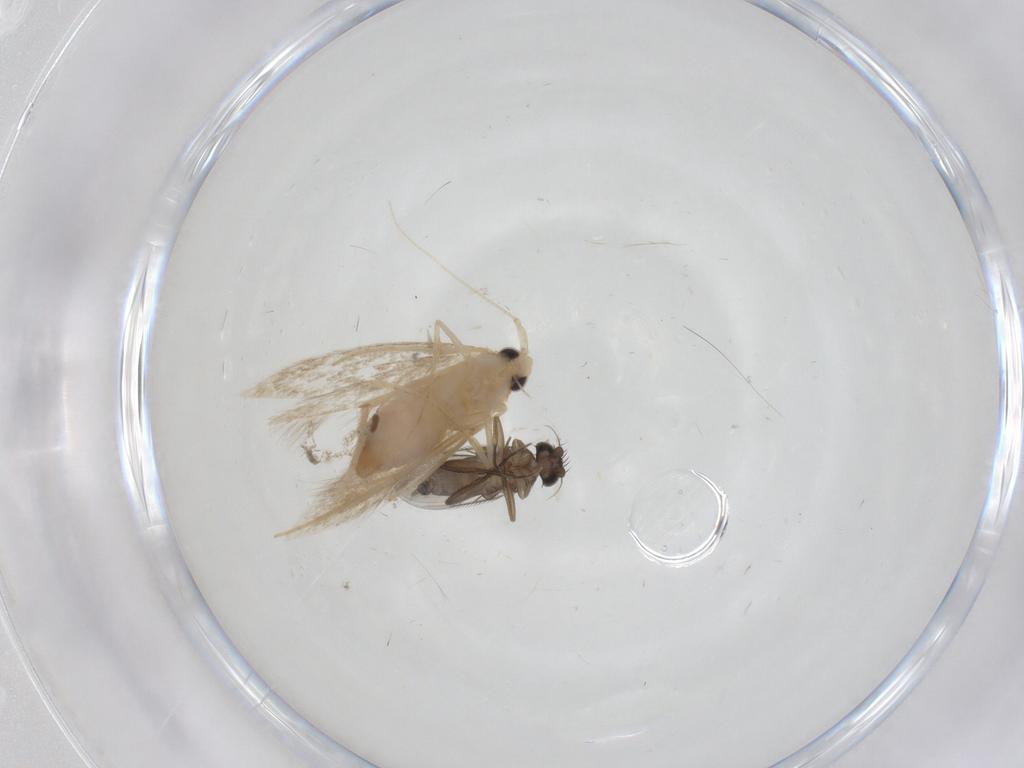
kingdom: Animalia
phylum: Arthropoda
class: Insecta
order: Lepidoptera
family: Tineidae
